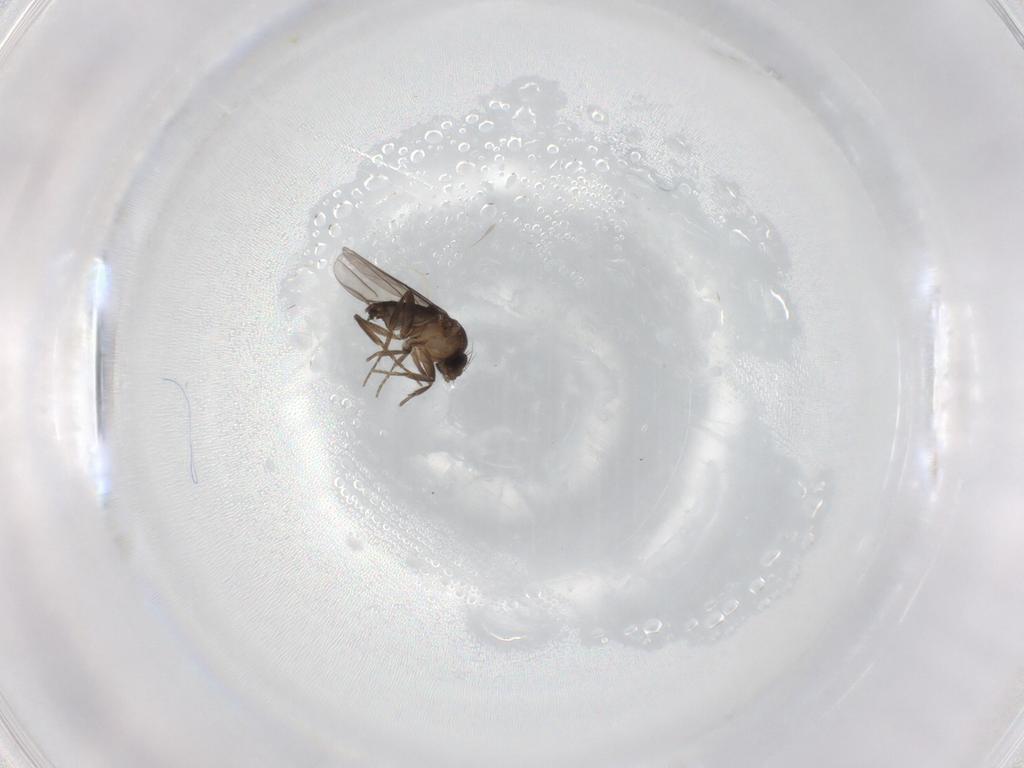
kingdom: Animalia
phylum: Arthropoda
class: Insecta
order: Diptera
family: Phoridae
